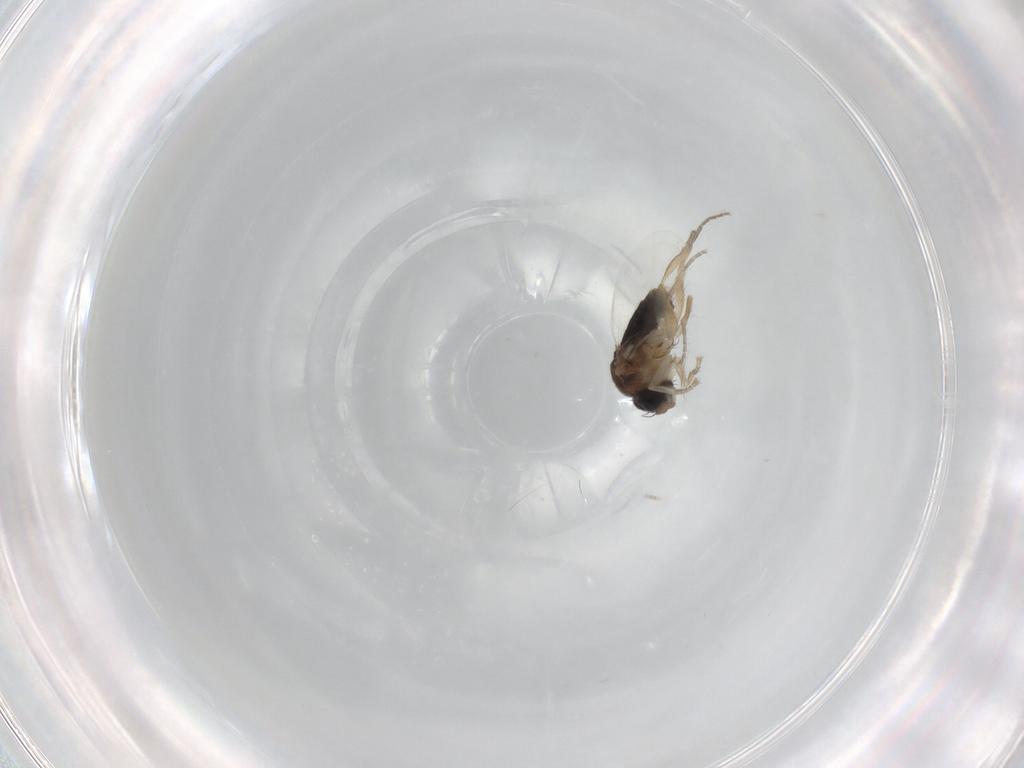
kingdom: Animalia
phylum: Arthropoda
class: Insecta
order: Diptera
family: Phoridae
